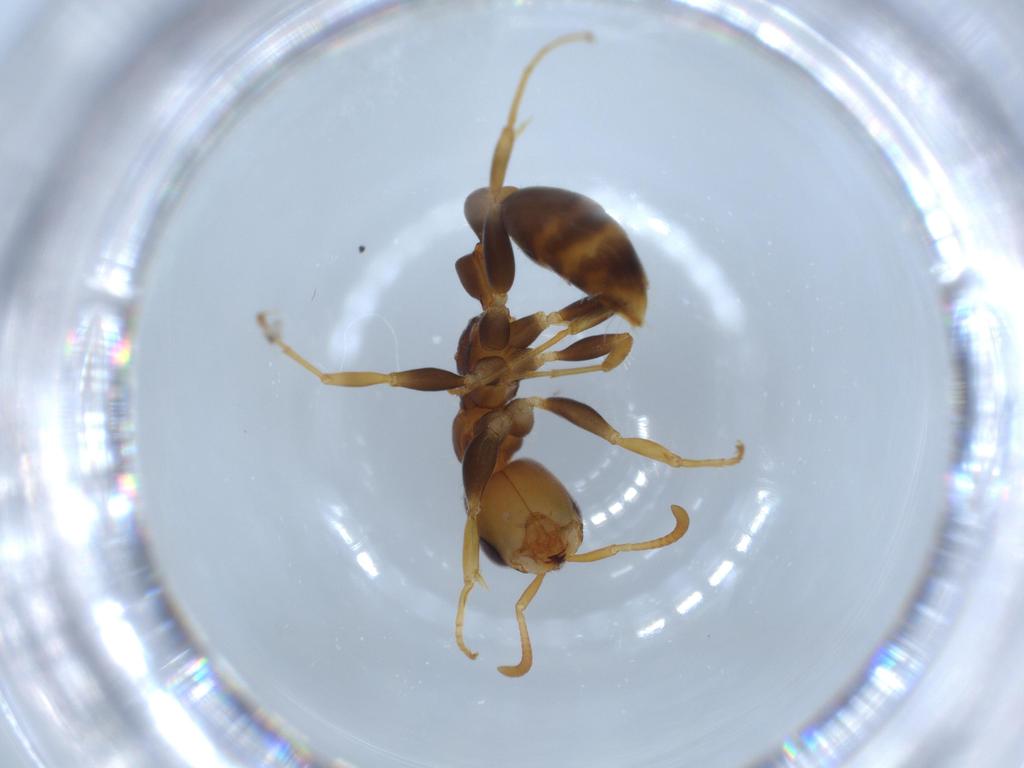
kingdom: Animalia
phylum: Arthropoda
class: Insecta
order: Hymenoptera
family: Formicidae
